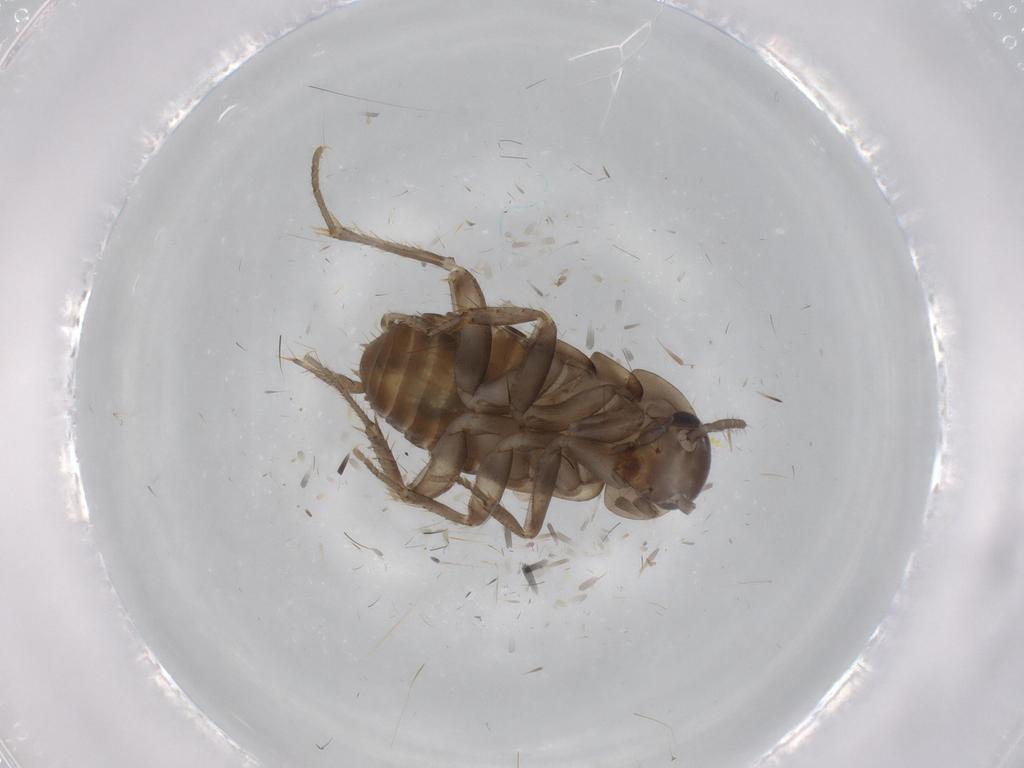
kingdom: Animalia
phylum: Arthropoda
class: Insecta
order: Blattodea
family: Ectobiidae
